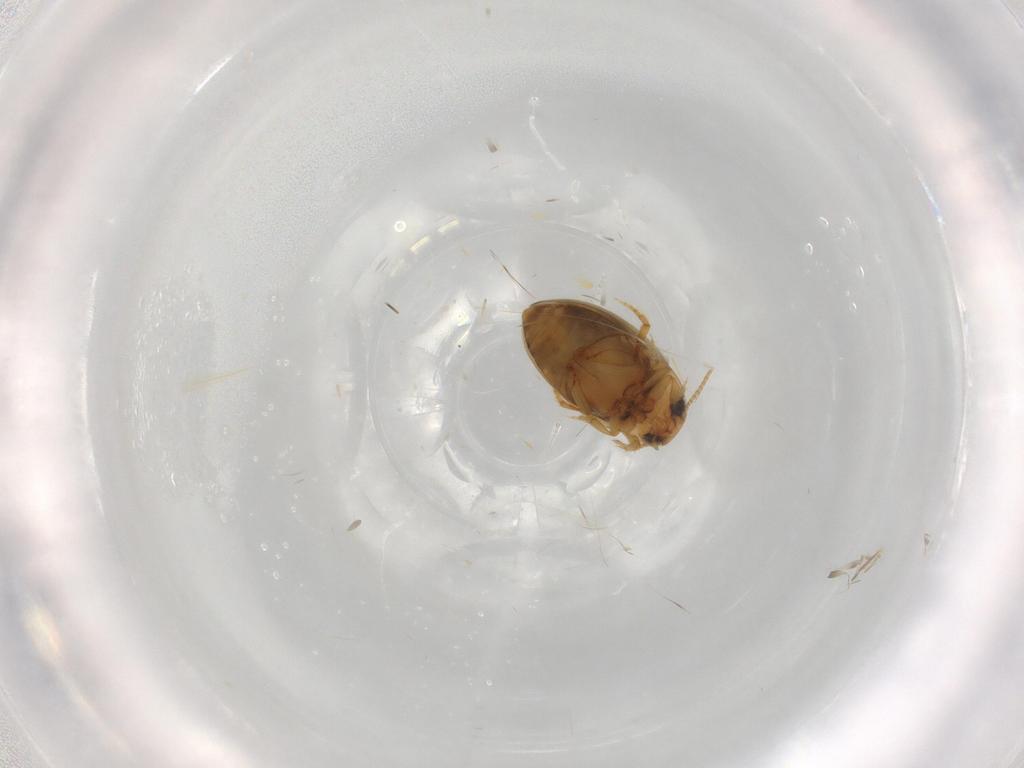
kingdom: Animalia
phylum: Arthropoda
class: Insecta
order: Coleoptera
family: Dytiscidae
